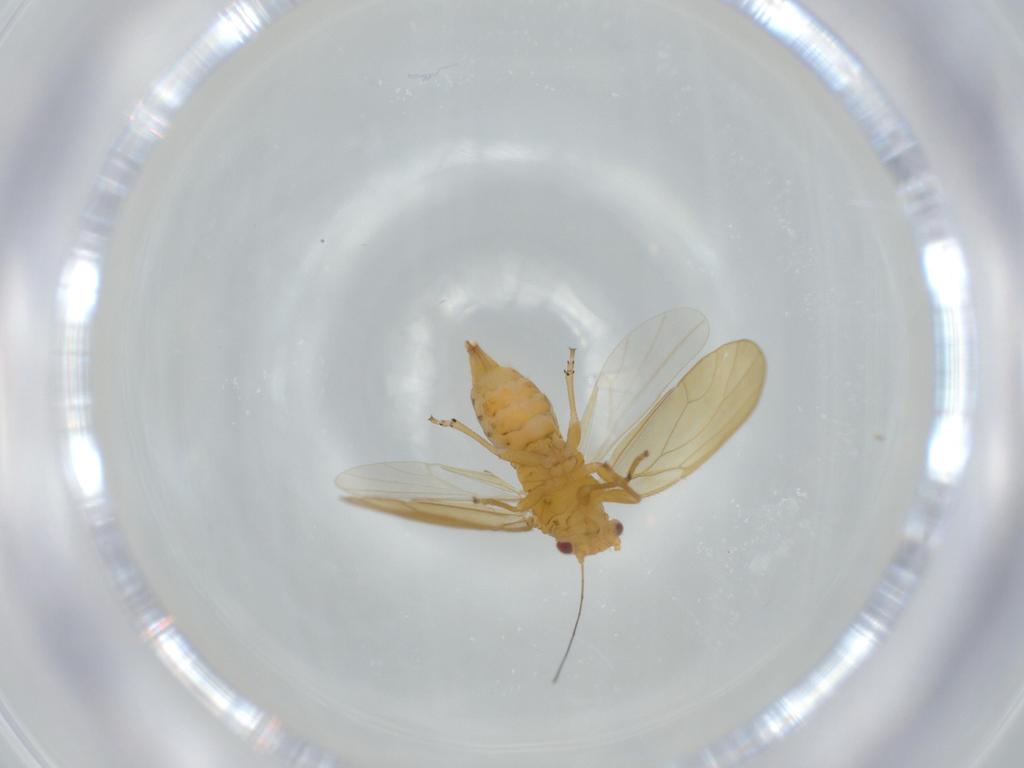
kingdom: Animalia
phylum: Arthropoda
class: Insecta
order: Hemiptera
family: Psyllidae
